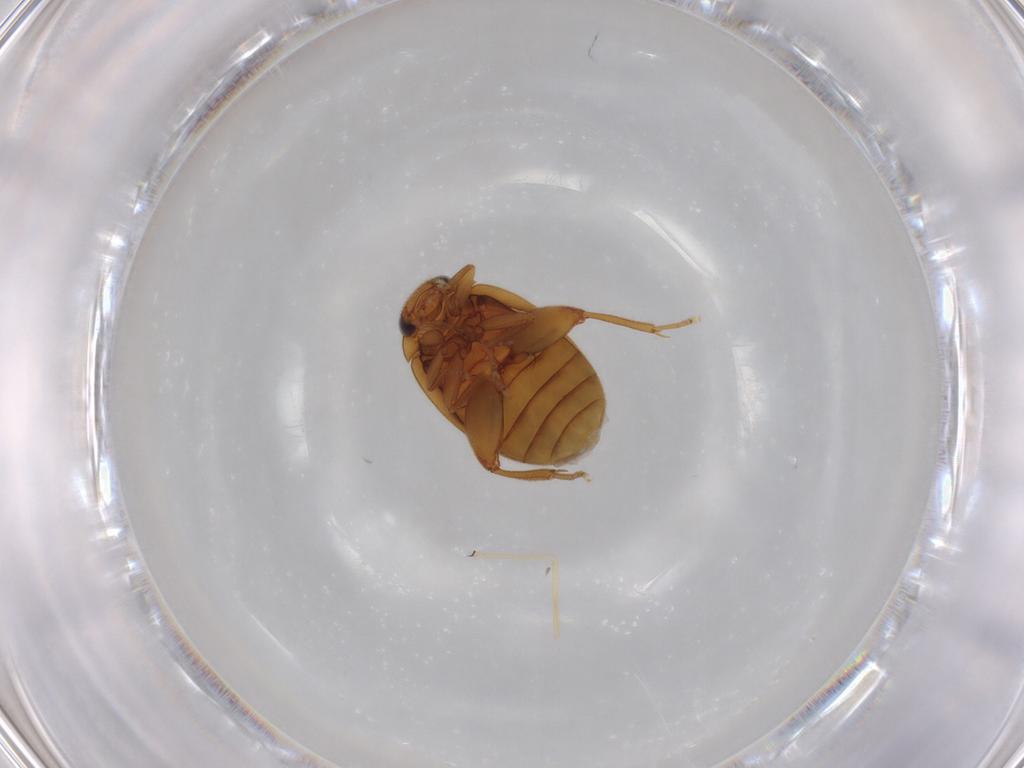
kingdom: Animalia
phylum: Arthropoda
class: Insecta
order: Coleoptera
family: Scirtidae
